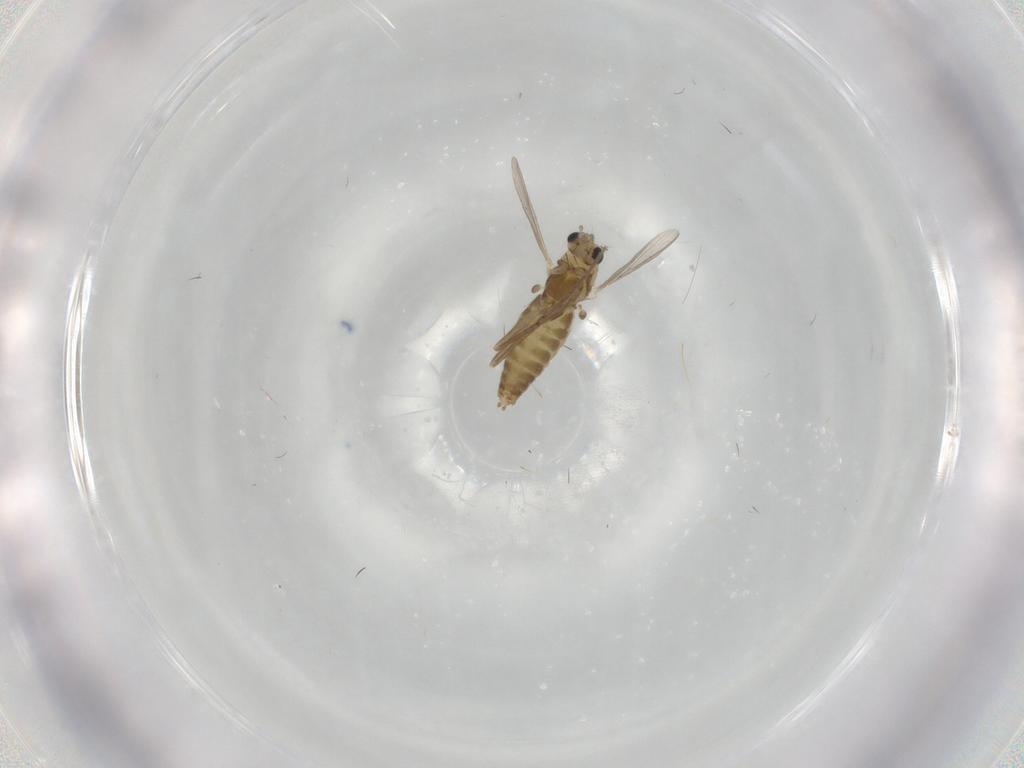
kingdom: Animalia
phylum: Arthropoda
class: Insecta
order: Diptera
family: Chironomidae
